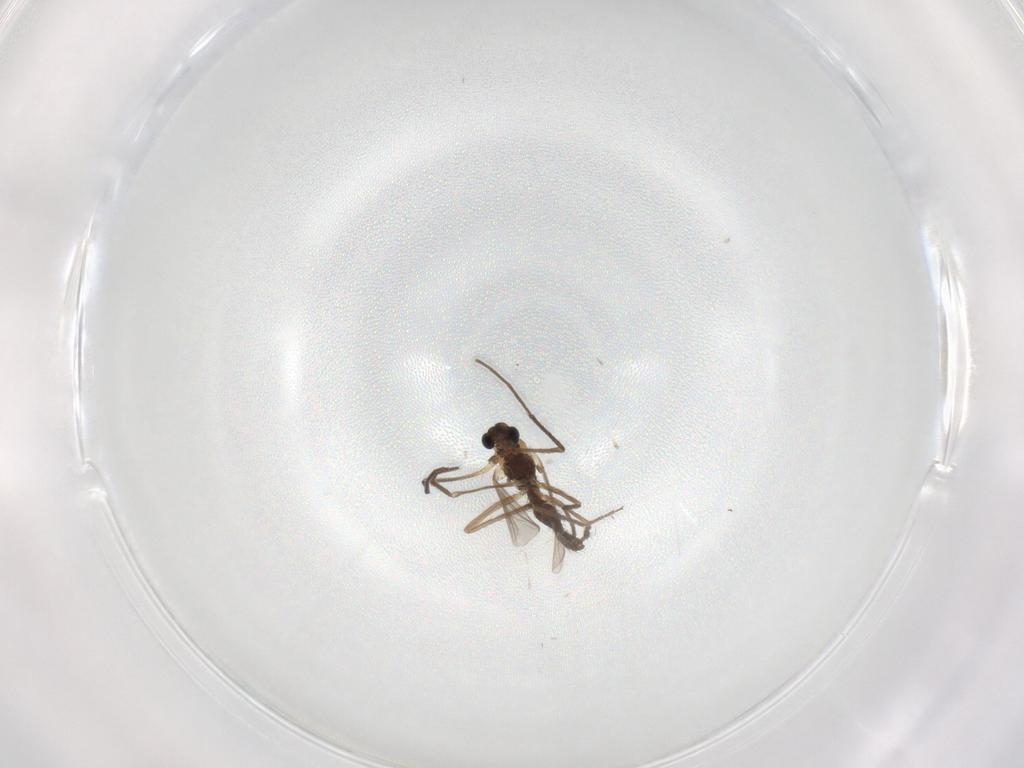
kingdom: Animalia
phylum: Arthropoda
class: Insecta
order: Diptera
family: Chironomidae
